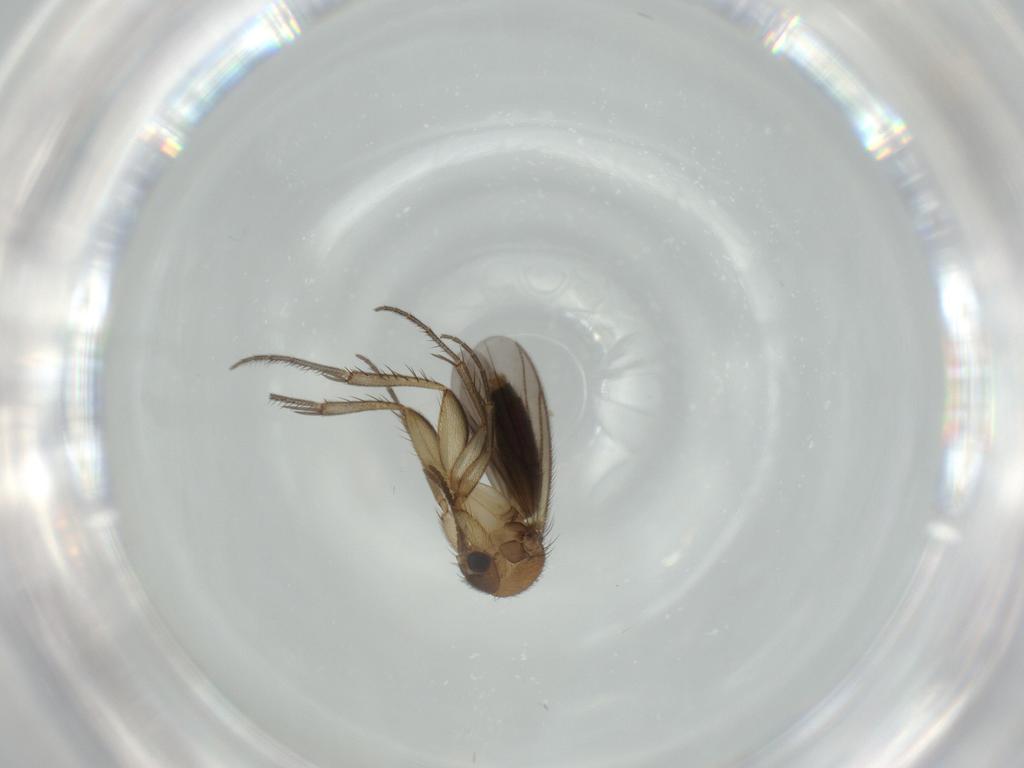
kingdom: Animalia
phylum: Arthropoda
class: Insecta
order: Diptera
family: Mycetophilidae
